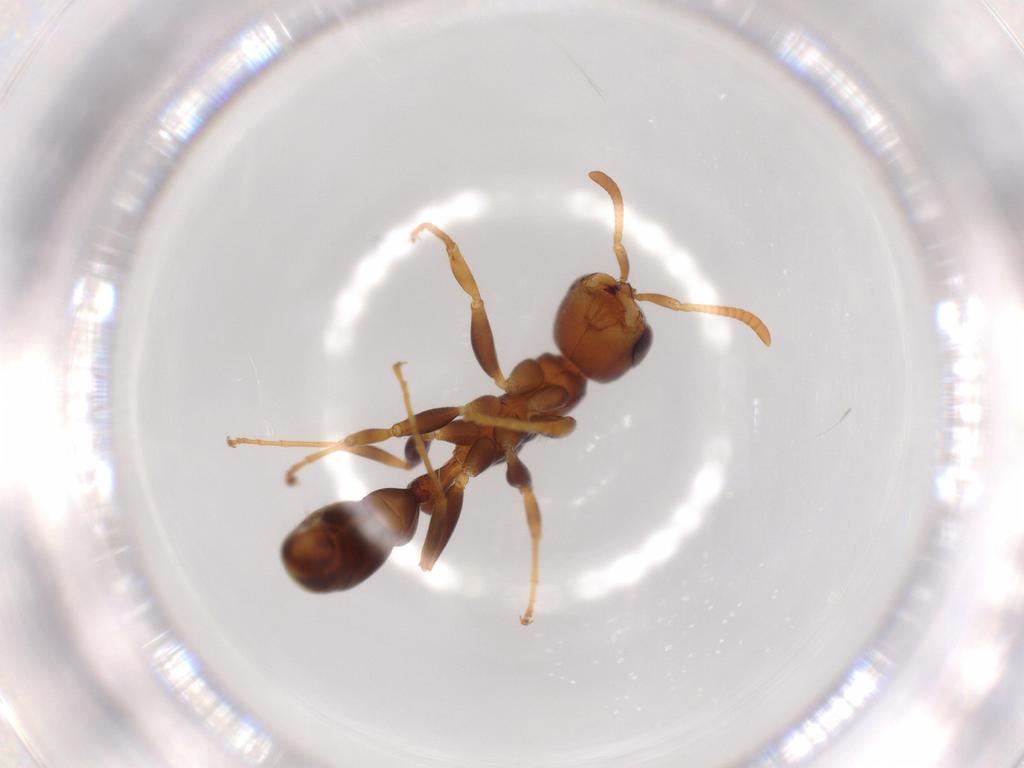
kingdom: Animalia
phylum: Arthropoda
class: Insecta
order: Hymenoptera
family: Formicidae
